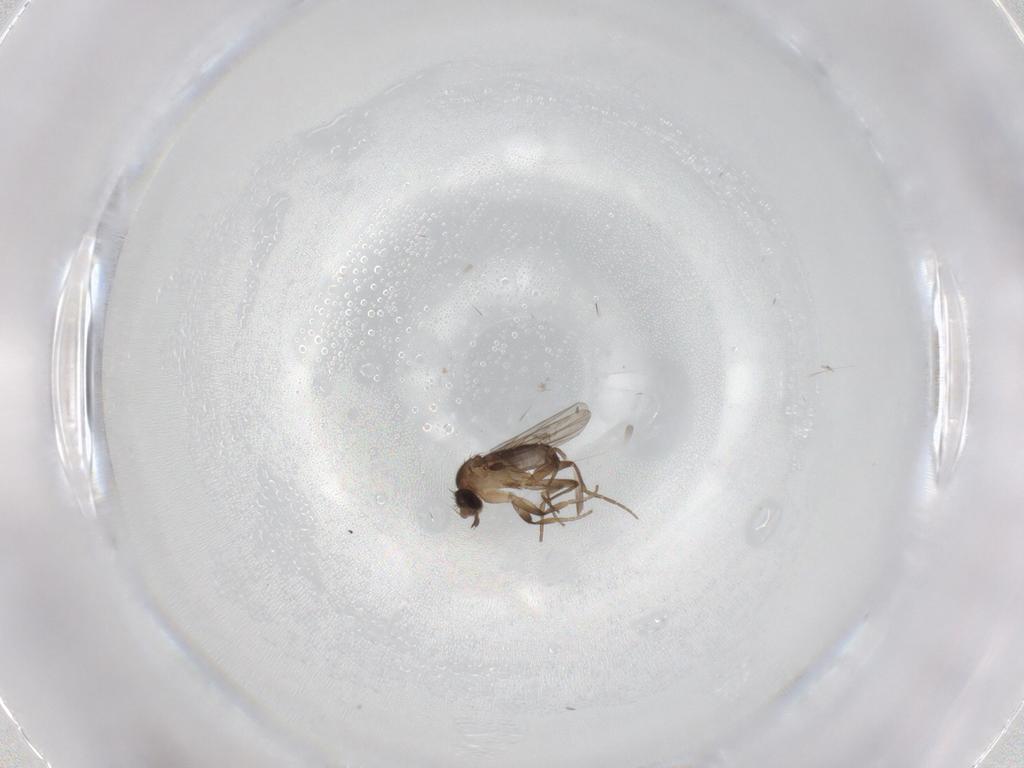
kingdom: Animalia
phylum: Arthropoda
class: Insecta
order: Diptera
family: Phoridae
